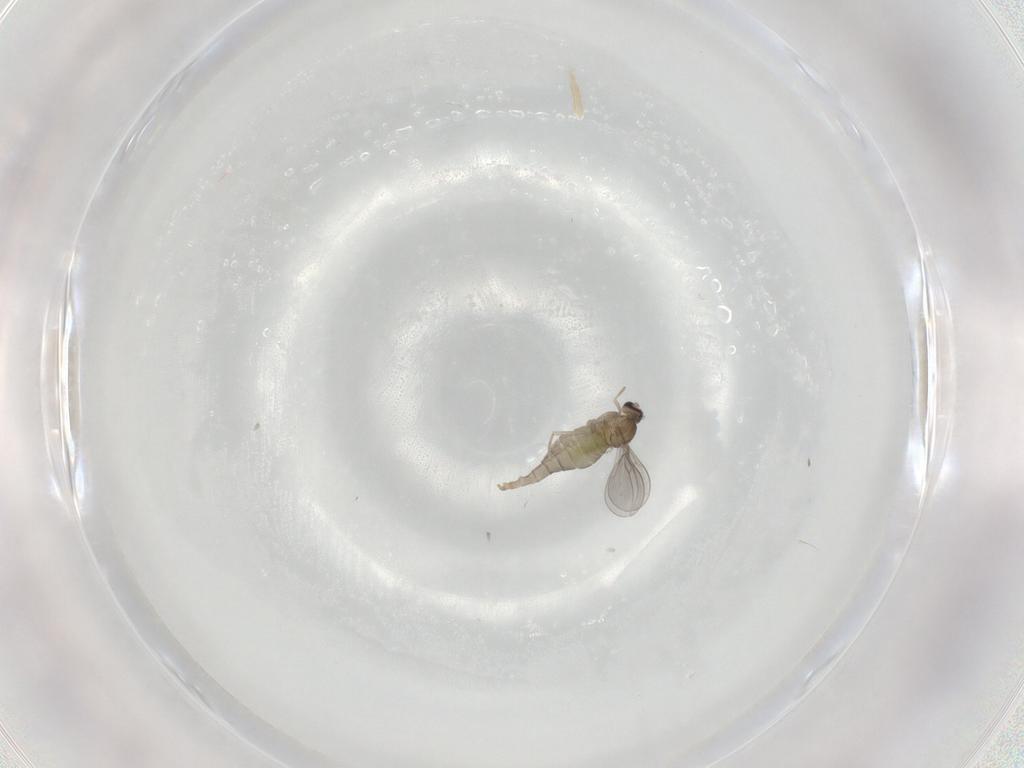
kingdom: Animalia
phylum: Arthropoda
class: Insecta
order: Diptera
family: Cecidomyiidae
